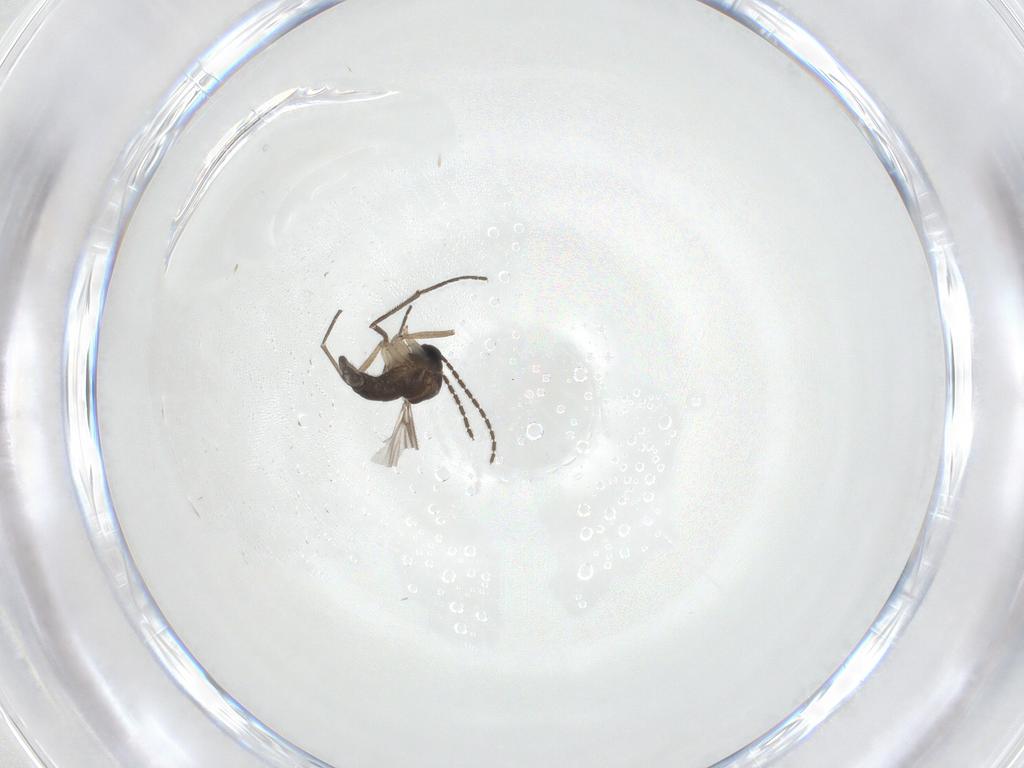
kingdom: Animalia
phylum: Arthropoda
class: Insecta
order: Diptera
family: Sciaridae
